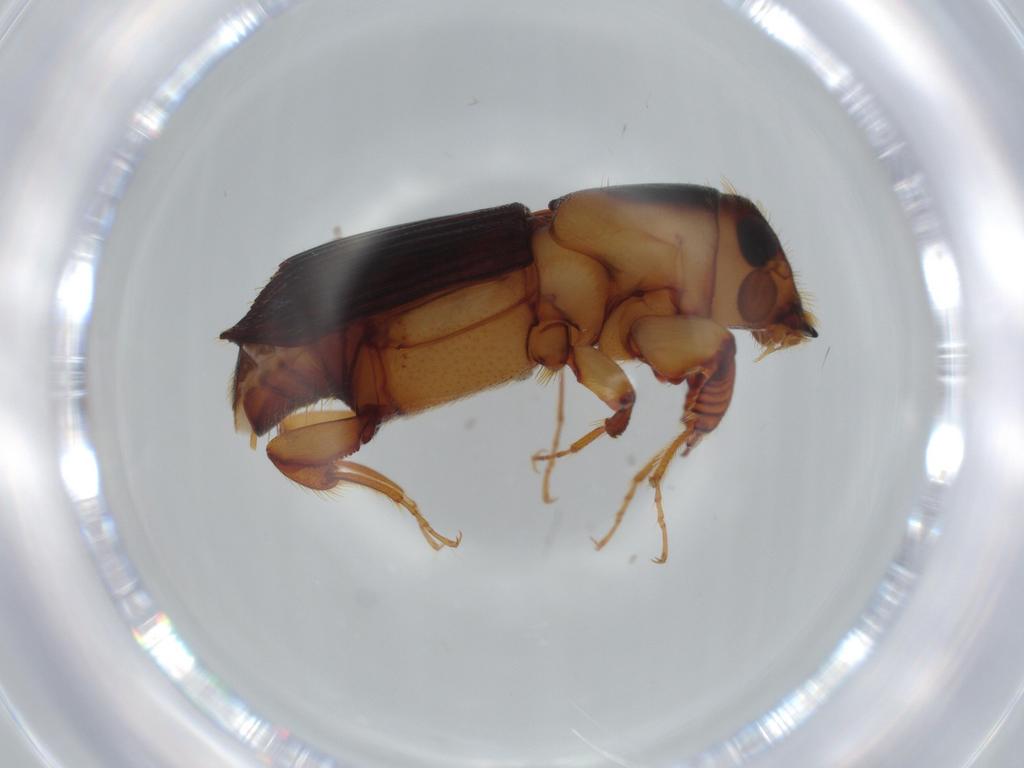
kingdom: Animalia
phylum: Arthropoda
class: Insecta
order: Coleoptera
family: Curculionidae
